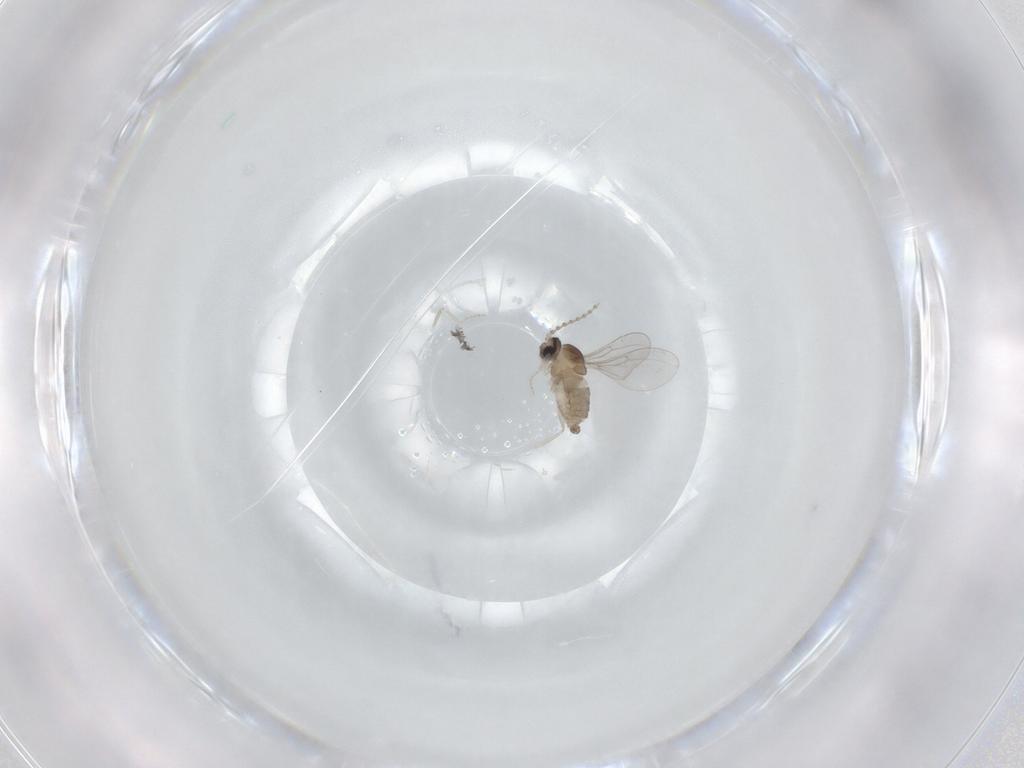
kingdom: Animalia
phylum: Arthropoda
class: Insecta
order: Diptera
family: Cecidomyiidae
